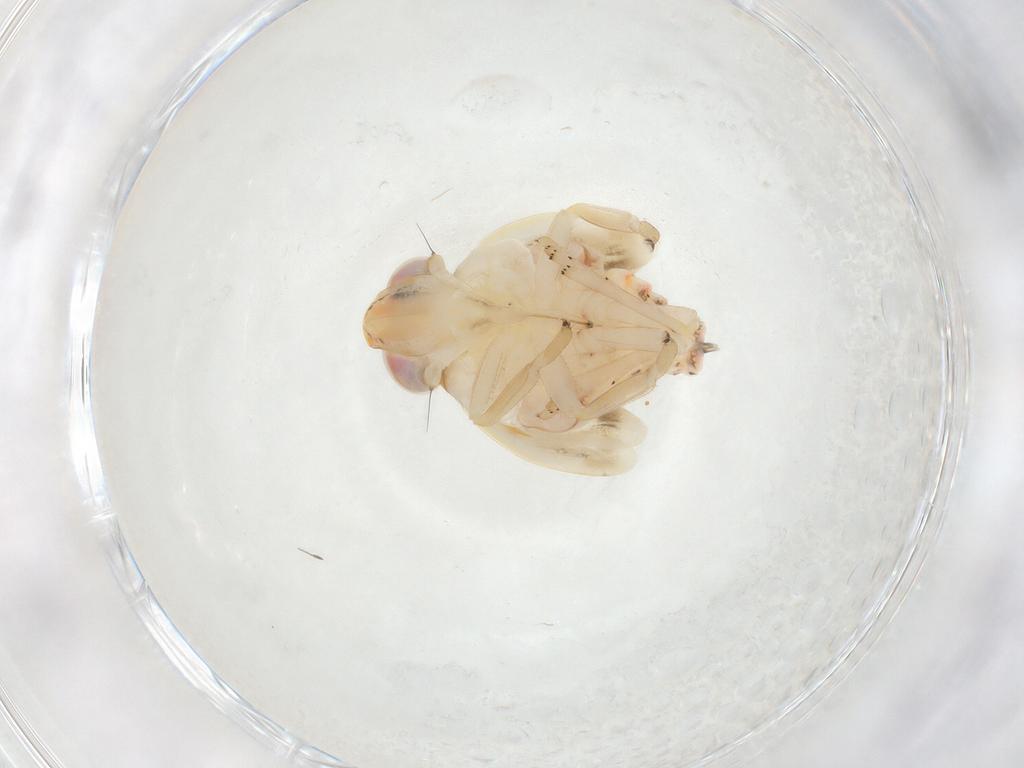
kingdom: Animalia
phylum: Arthropoda
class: Insecta
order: Hemiptera
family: Nogodinidae
